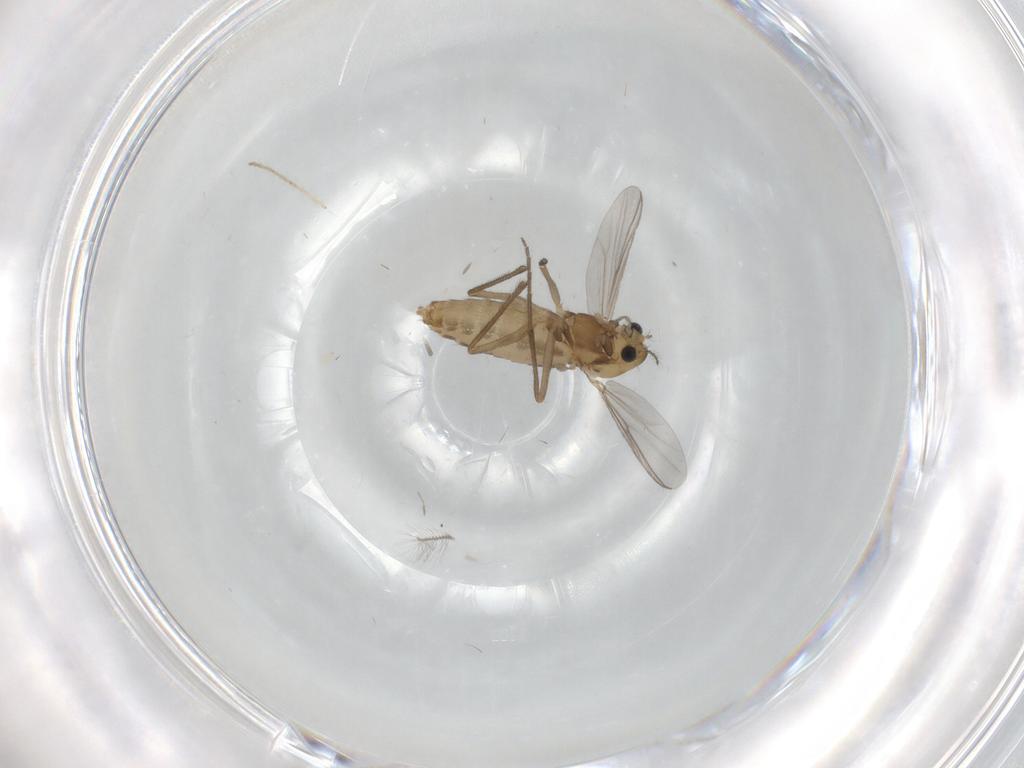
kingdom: Animalia
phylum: Arthropoda
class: Insecta
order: Diptera
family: Chironomidae
